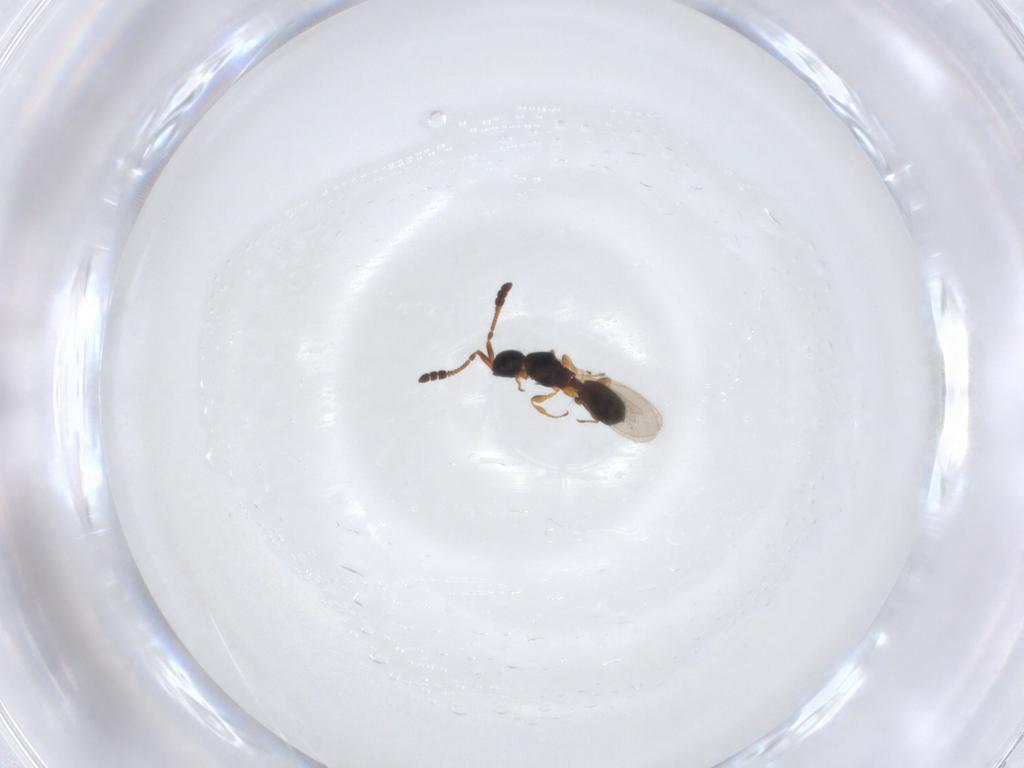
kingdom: Animalia
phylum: Arthropoda
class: Insecta
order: Hymenoptera
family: Diapriidae
